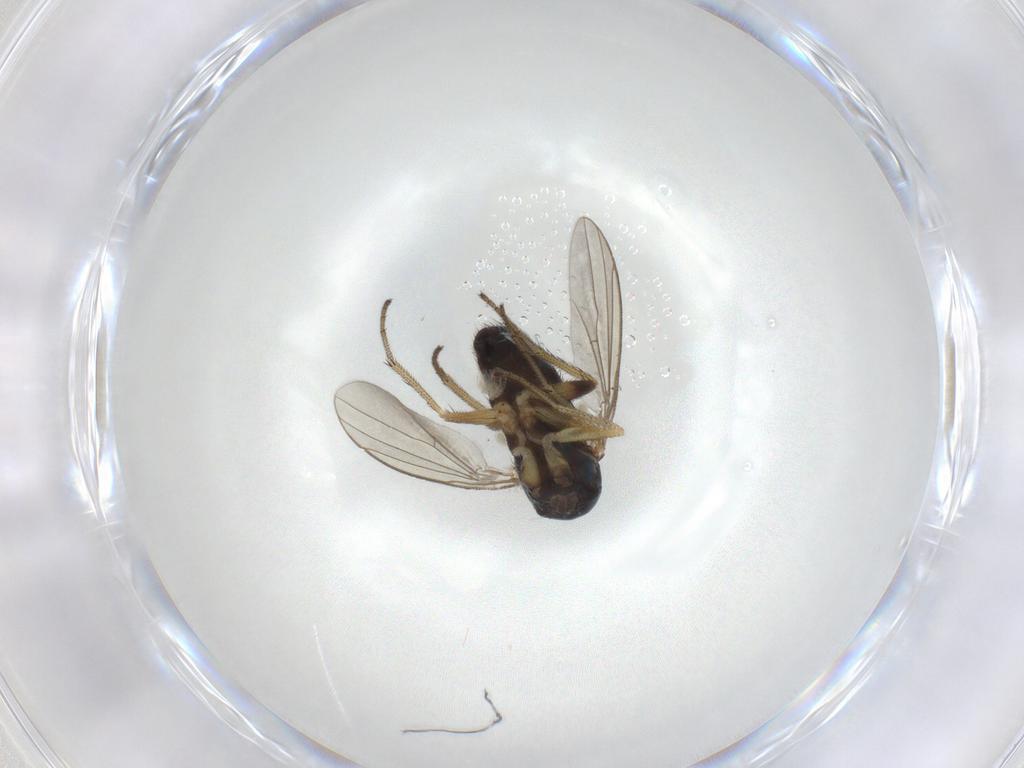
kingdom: Animalia
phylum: Arthropoda
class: Insecta
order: Diptera
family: Dolichopodidae
